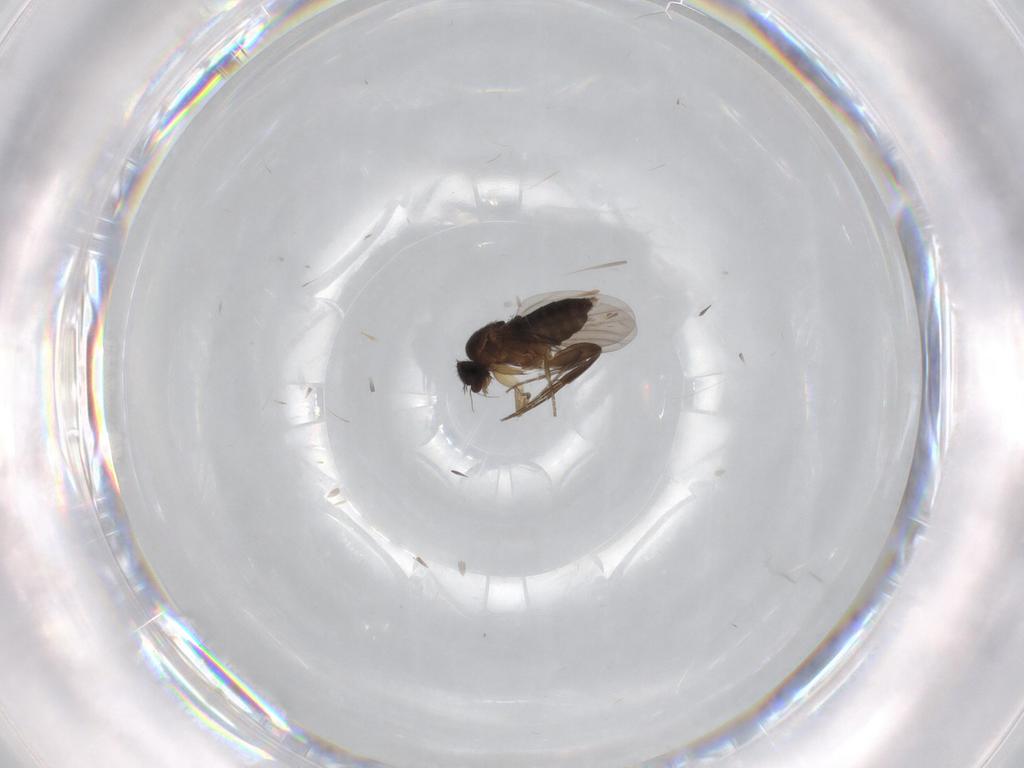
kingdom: Animalia
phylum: Arthropoda
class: Insecta
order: Diptera
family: Phoridae
